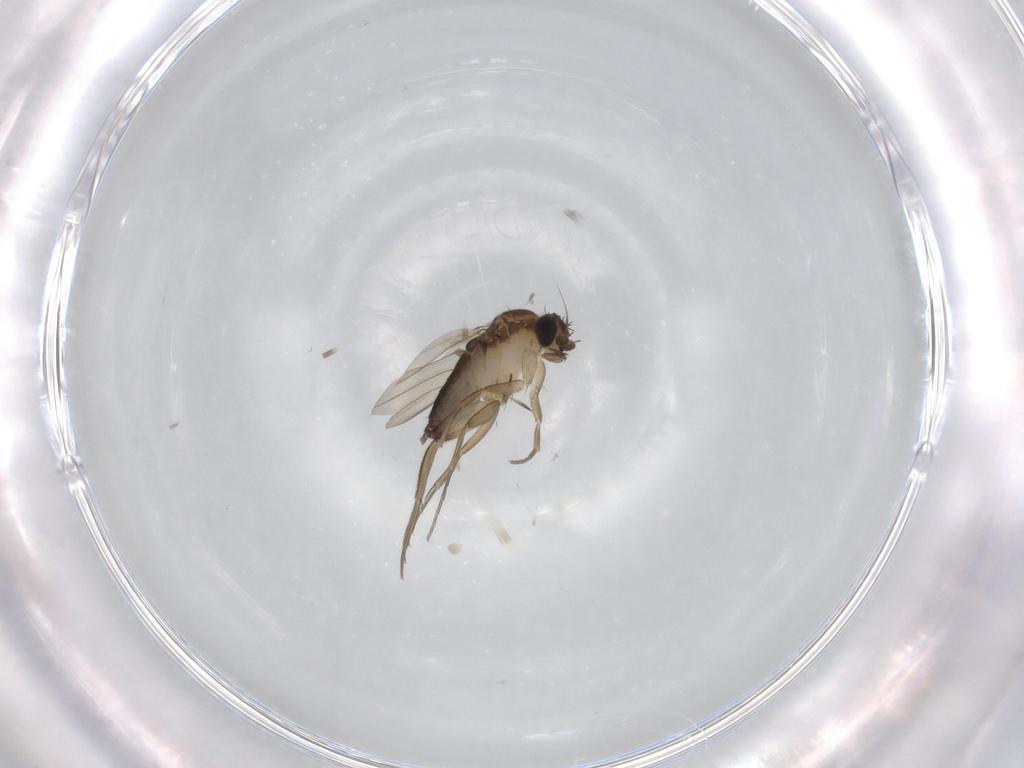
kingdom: Animalia
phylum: Arthropoda
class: Insecta
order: Diptera
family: Phoridae
